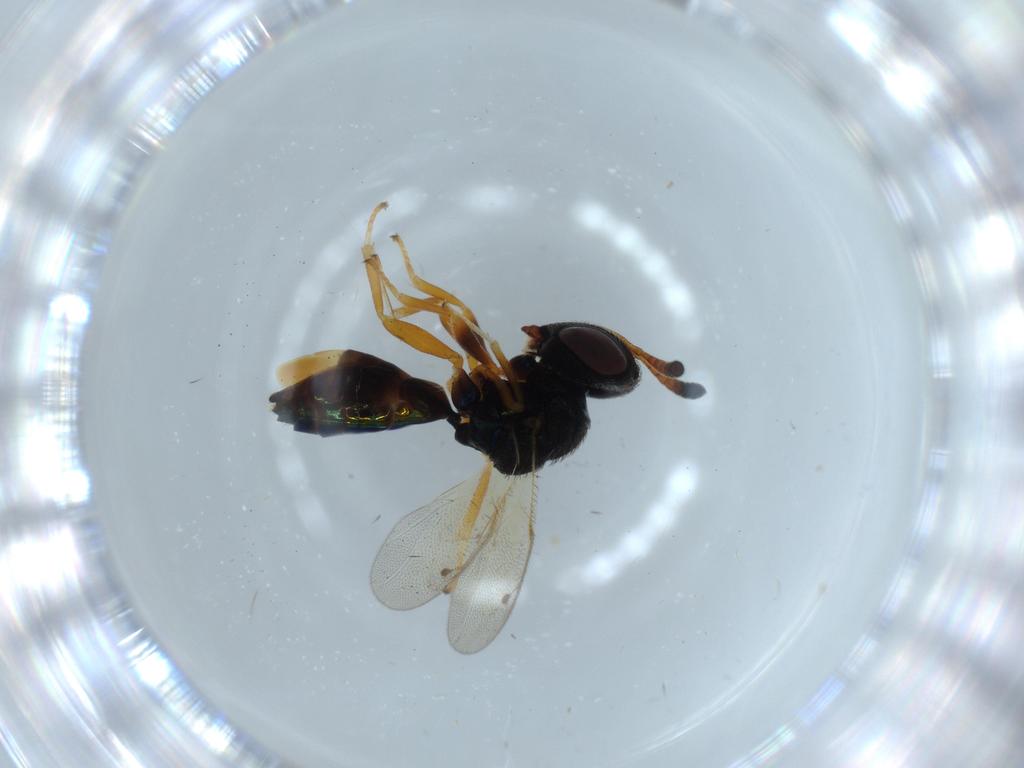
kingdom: Animalia
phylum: Arthropoda
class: Insecta
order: Hymenoptera
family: Agaonidae
